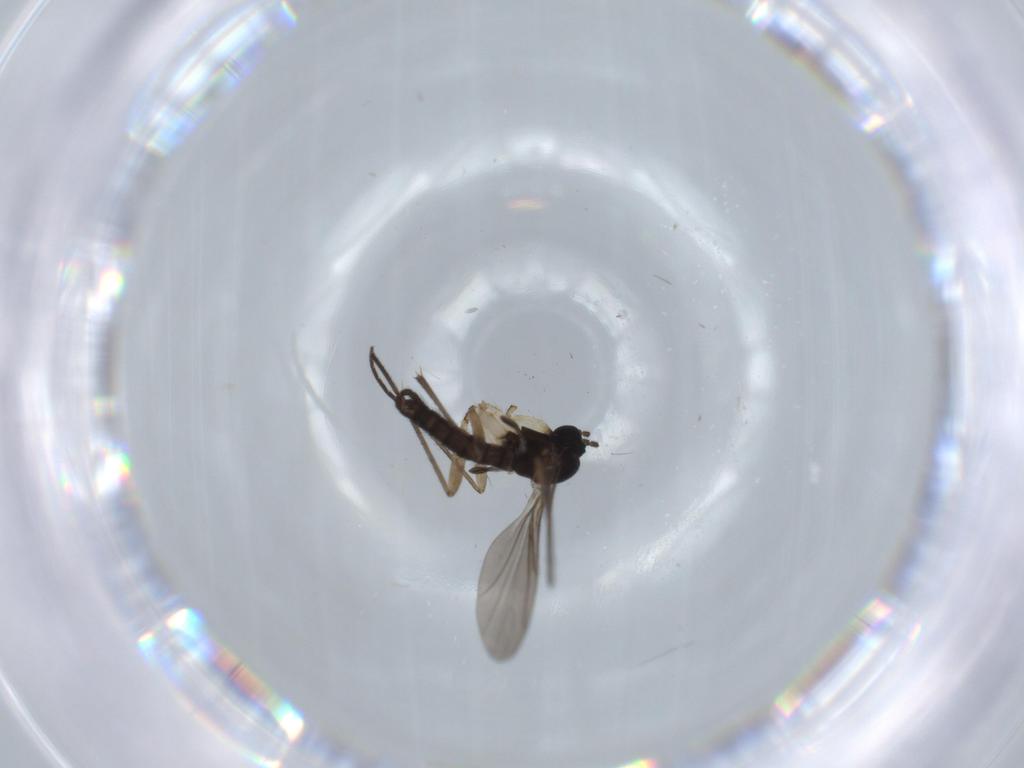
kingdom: Animalia
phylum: Arthropoda
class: Insecta
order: Diptera
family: Sciaridae
